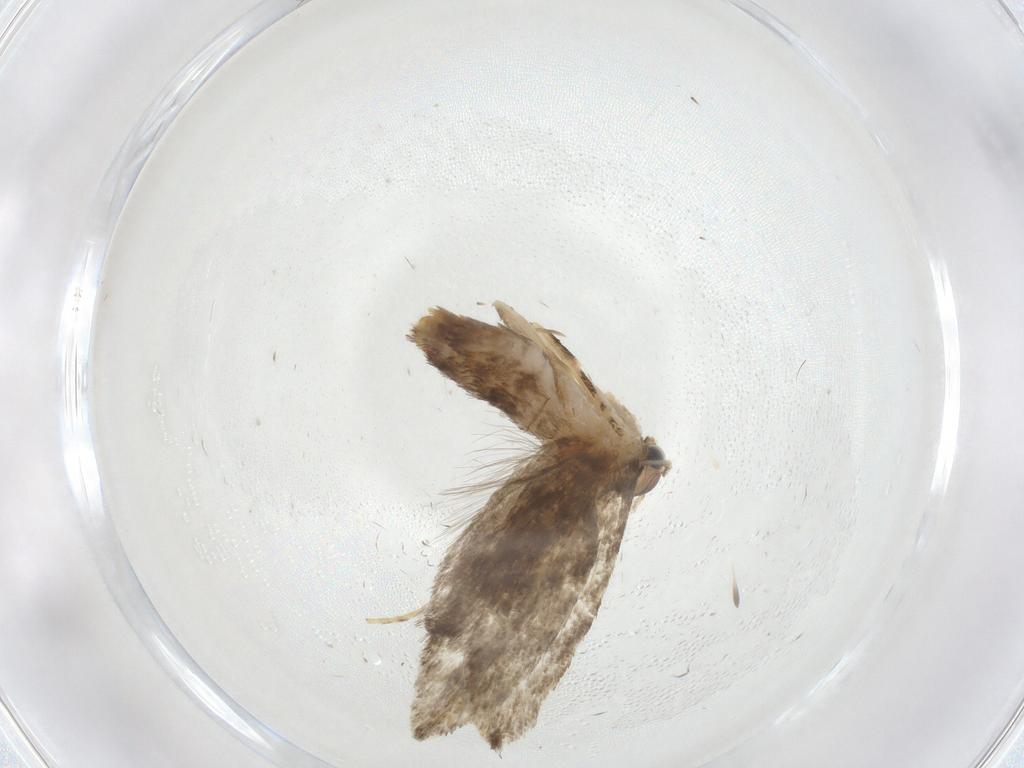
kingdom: Animalia
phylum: Arthropoda
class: Insecta
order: Lepidoptera
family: Tineidae
